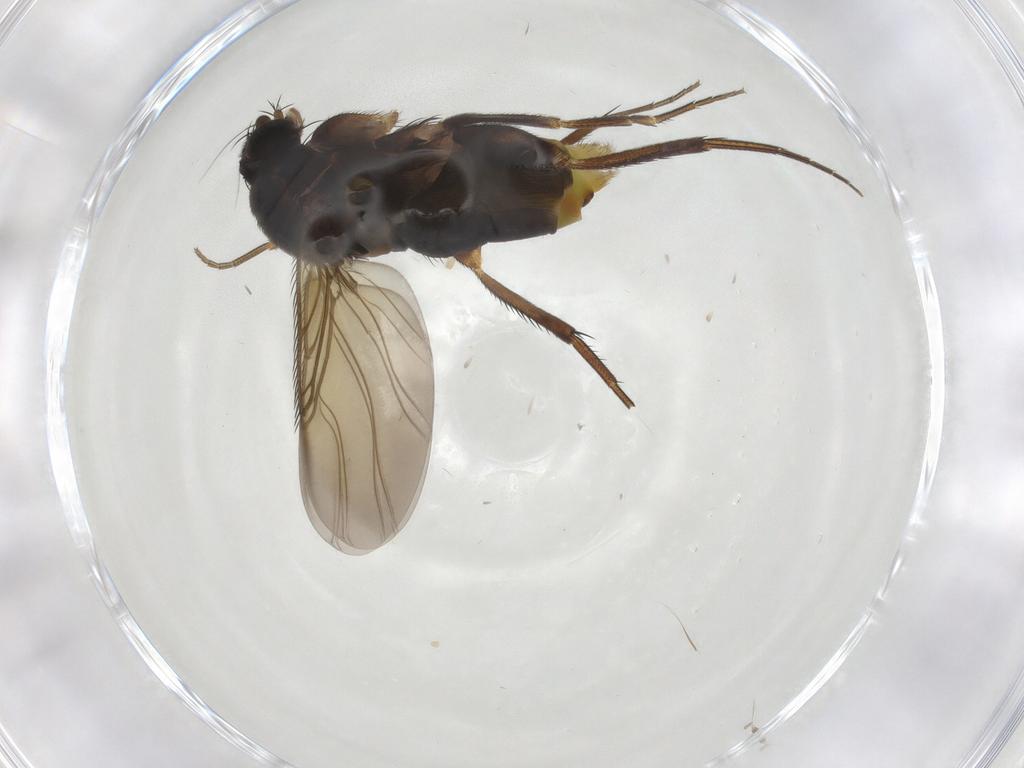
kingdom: Animalia
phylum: Arthropoda
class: Insecta
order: Diptera
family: Phoridae
